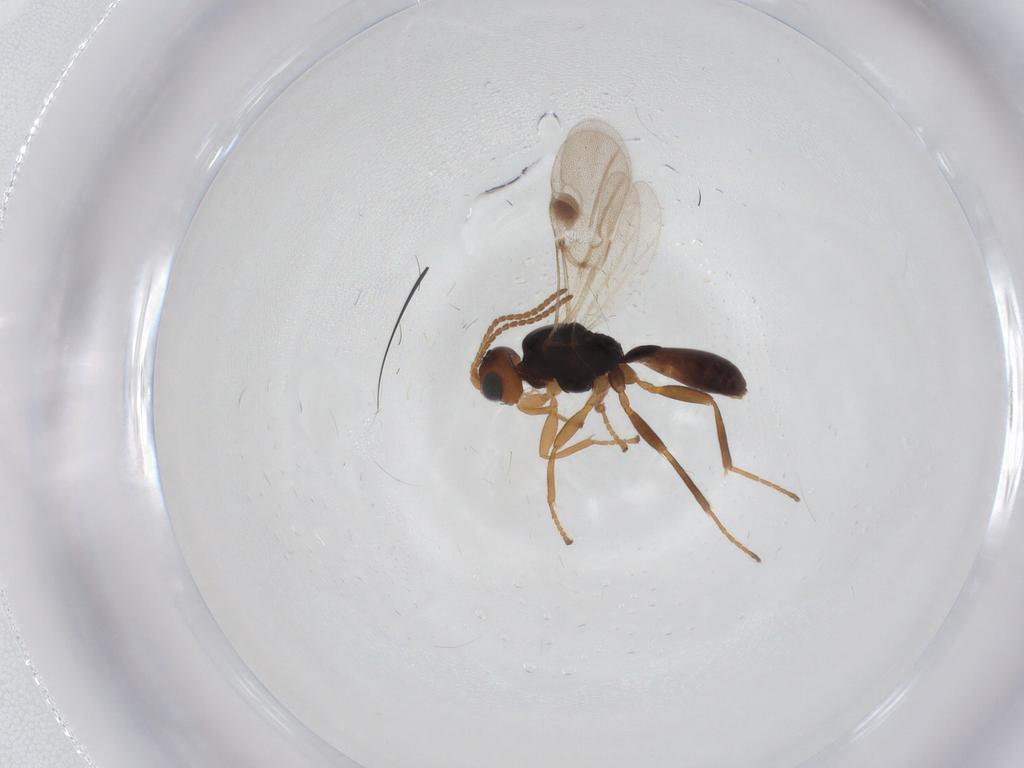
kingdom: Animalia
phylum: Arthropoda
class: Insecta
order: Hymenoptera
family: Braconidae
